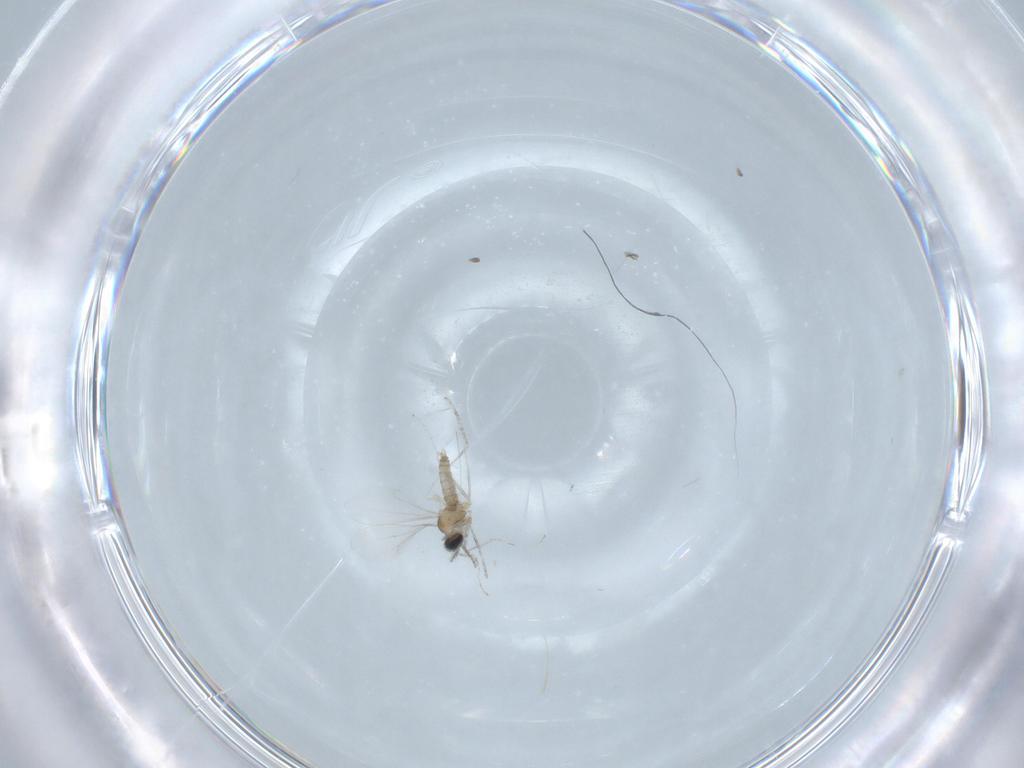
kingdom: Animalia
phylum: Arthropoda
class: Insecta
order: Diptera
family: Cecidomyiidae
